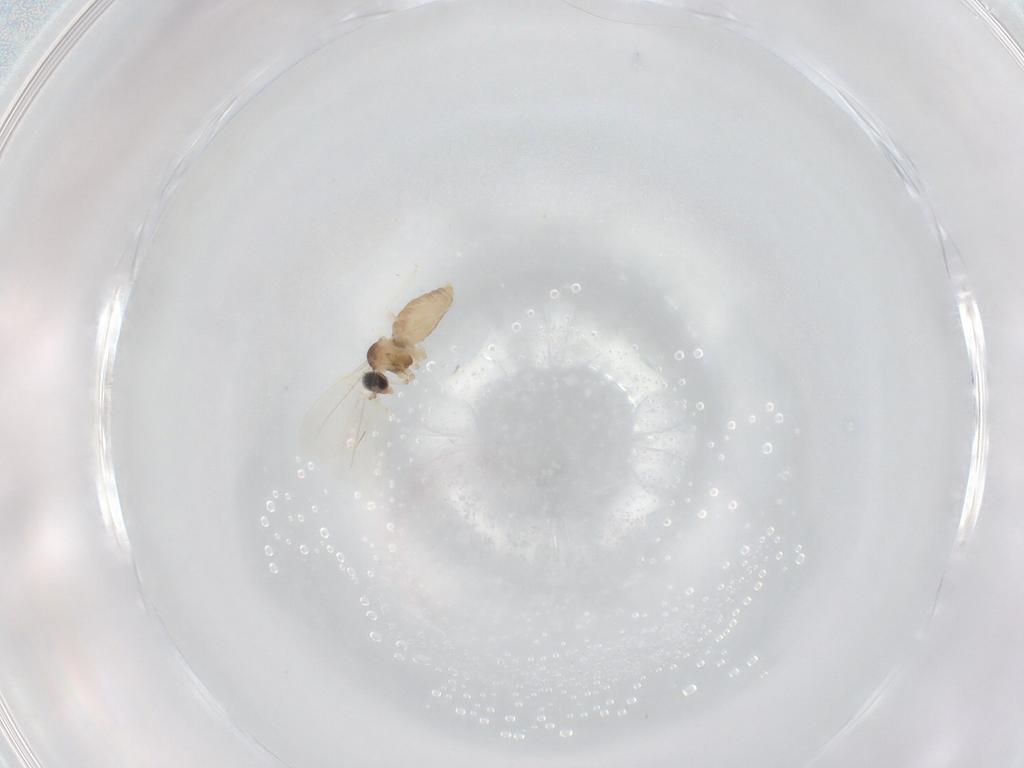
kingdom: Animalia
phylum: Arthropoda
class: Insecta
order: Diptera
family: Cecidomyiidae
